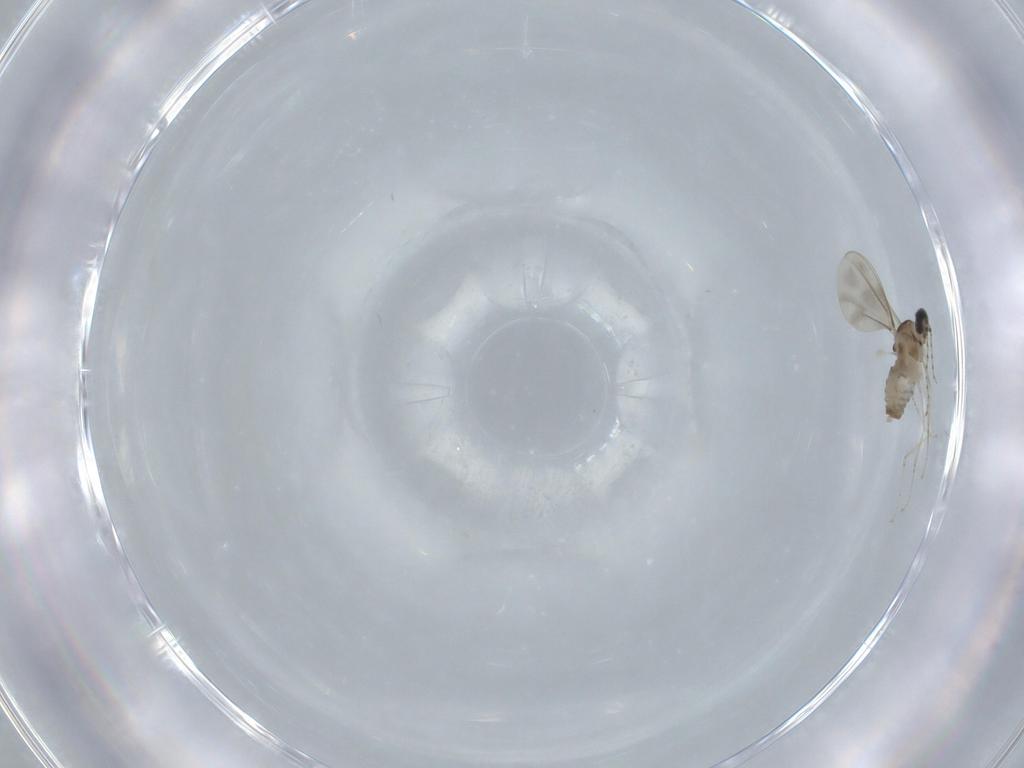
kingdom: Animalia
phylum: Arthropoda
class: Insecta
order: Diptera
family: Cecidomyiidae
